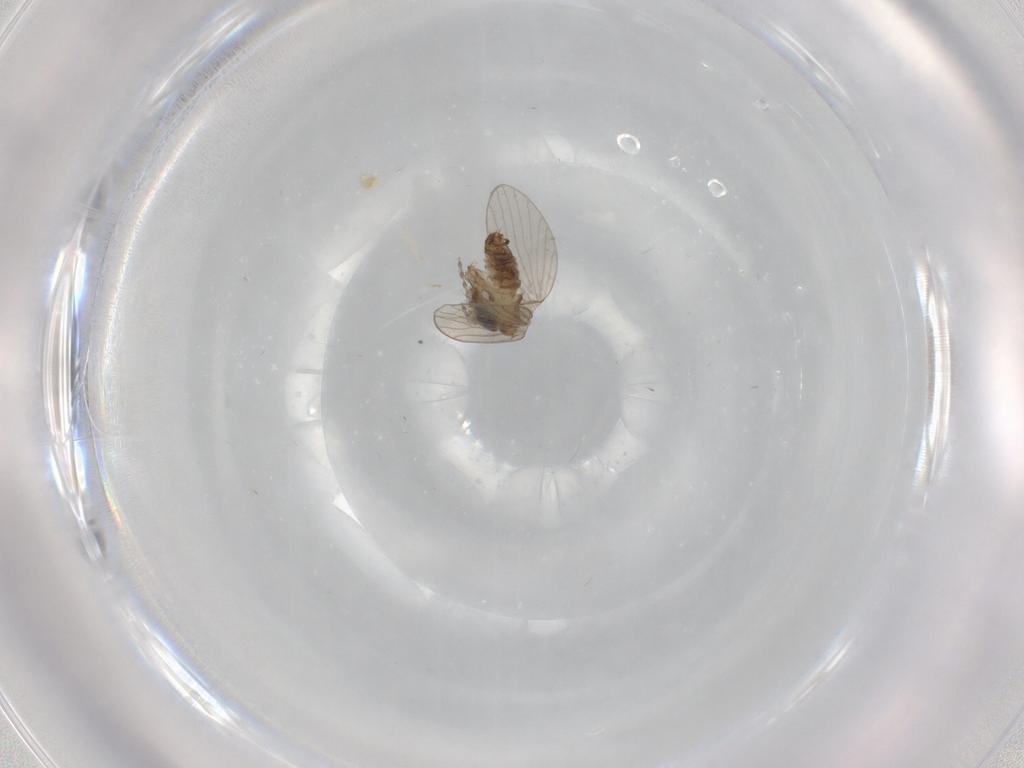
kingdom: Animalia
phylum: Arthropoda
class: Insecta
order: Diptera
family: Psychodidae
